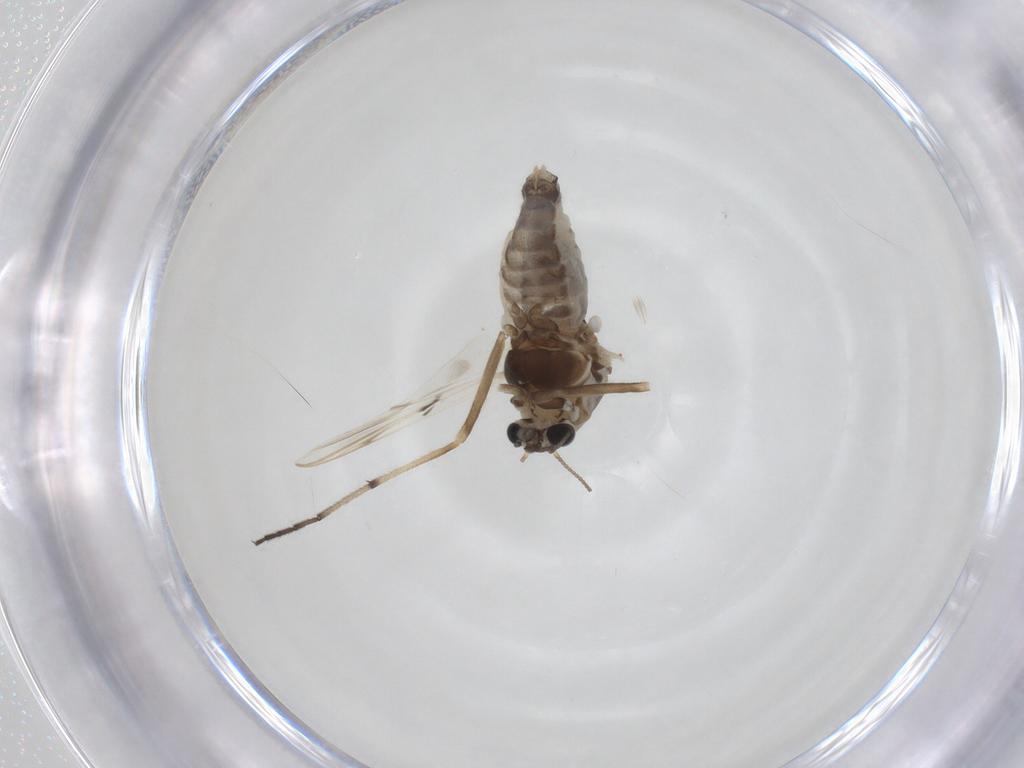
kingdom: Animalia
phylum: Arthropoda
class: Insecta
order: Diptera
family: Chironomidae
